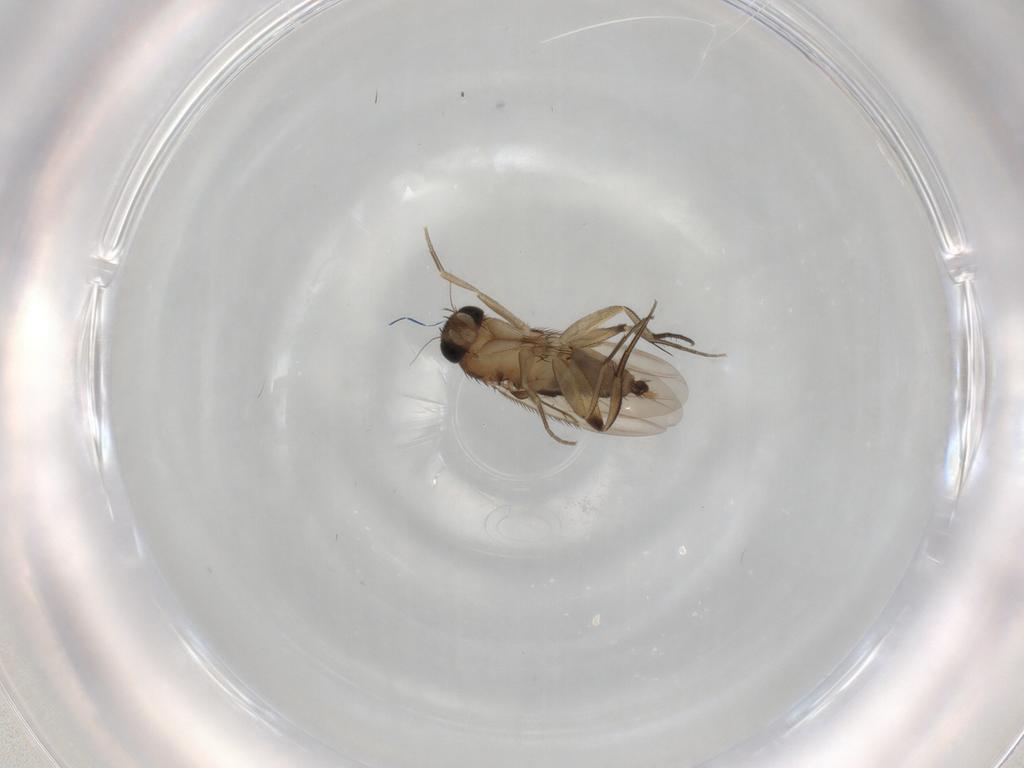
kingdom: Animalia
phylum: Arthropoda
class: Insecta
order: Diptera
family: Phoridae
